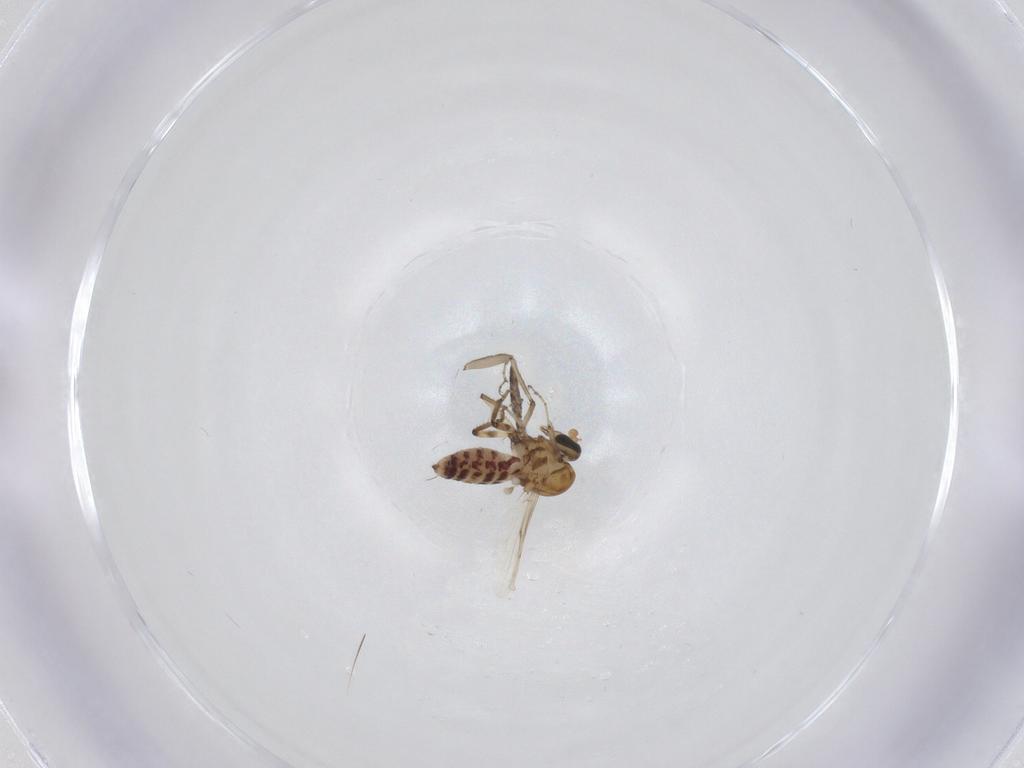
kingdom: Animalia
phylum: Arthropoda
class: Insecta
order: Diptera
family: Ceratopogonidae
